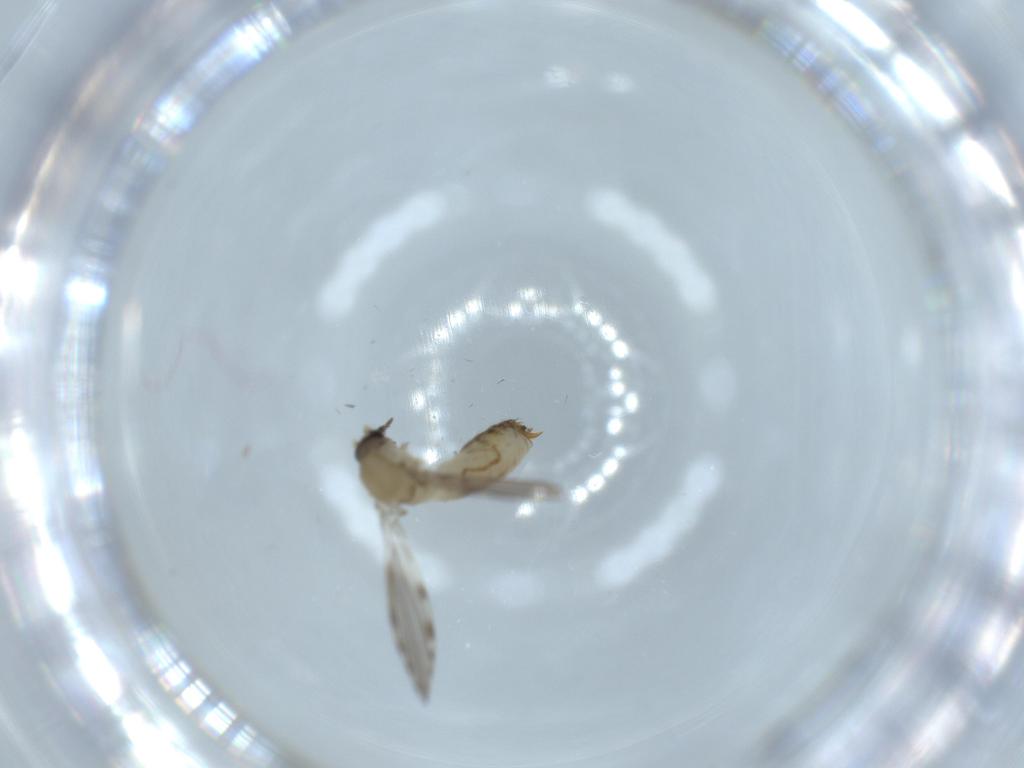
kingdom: Animalia
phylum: Arthropoda
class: Insecta
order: Diptera
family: Psychodidae
